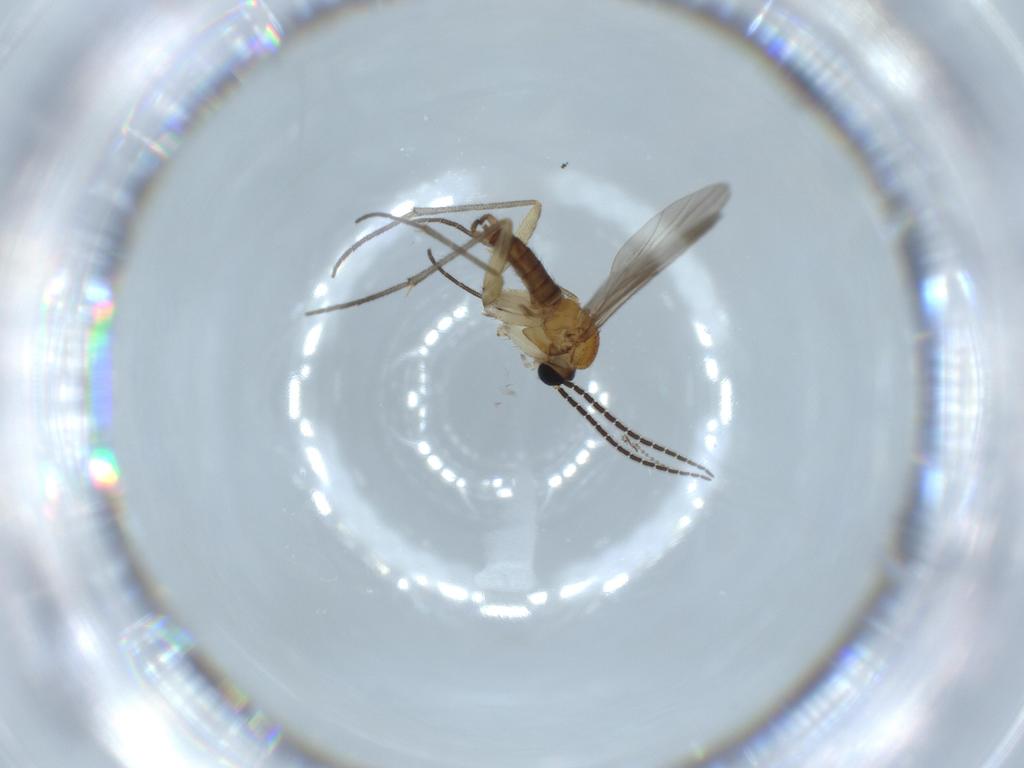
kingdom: Animalia
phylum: Arthropoda
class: Insecta
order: Diptera
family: Sciaridae
